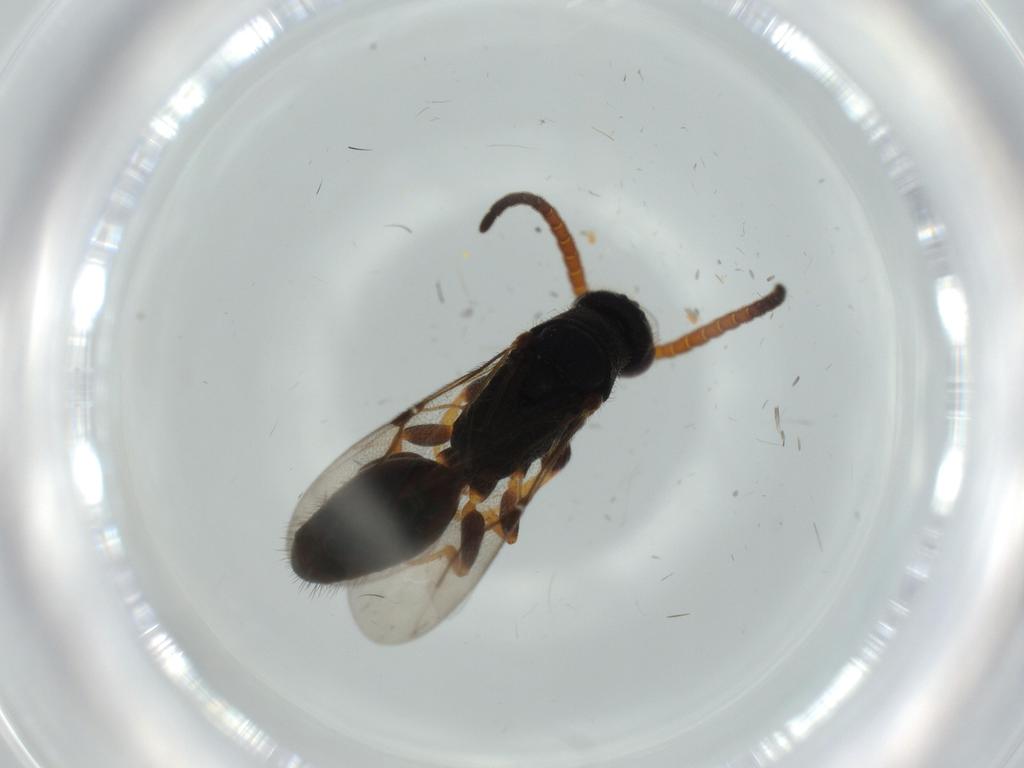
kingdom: Animalia
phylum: Arthropoda
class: Insecta
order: Hymenoptera
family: Bethylidae
